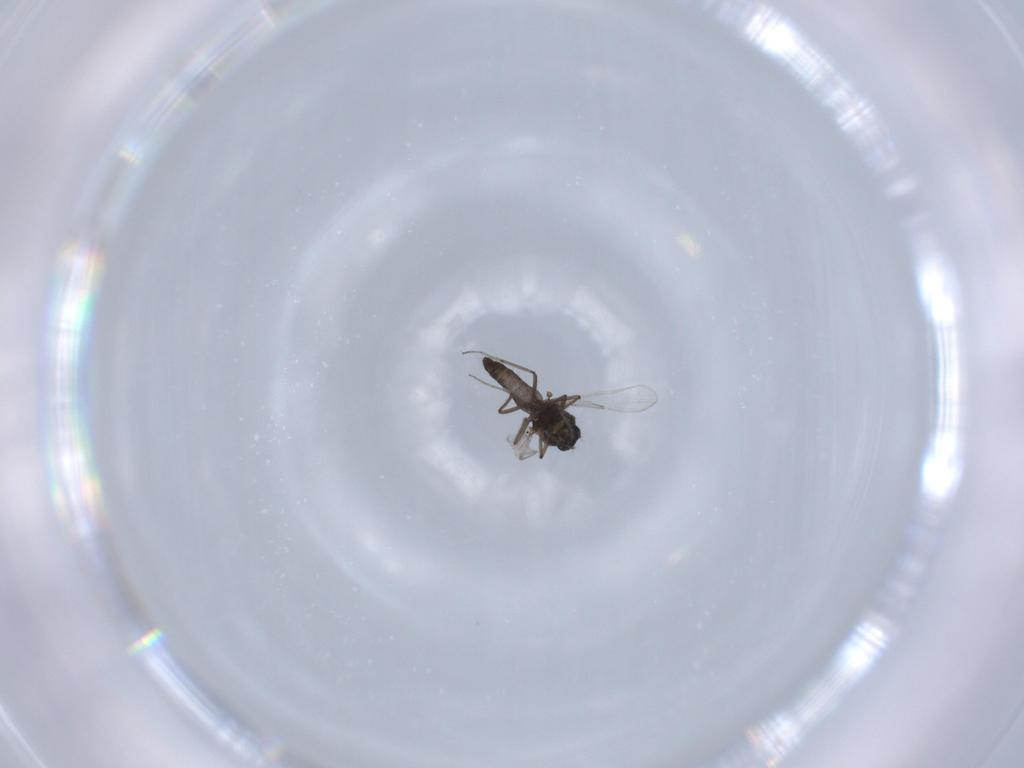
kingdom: Animalia
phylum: Arthropoda
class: Insecta
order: Diptera
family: Ceratopogonidae
